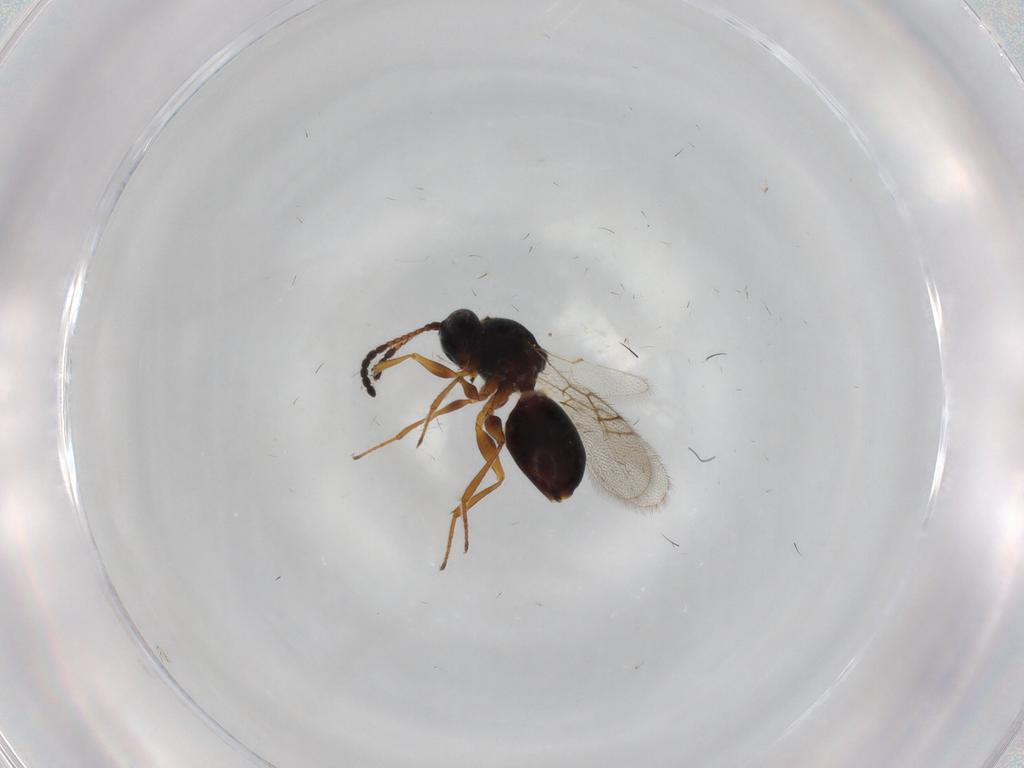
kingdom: Animalia
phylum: Arthropoda
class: Insecta
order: Hymenoptera
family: Figitidae
